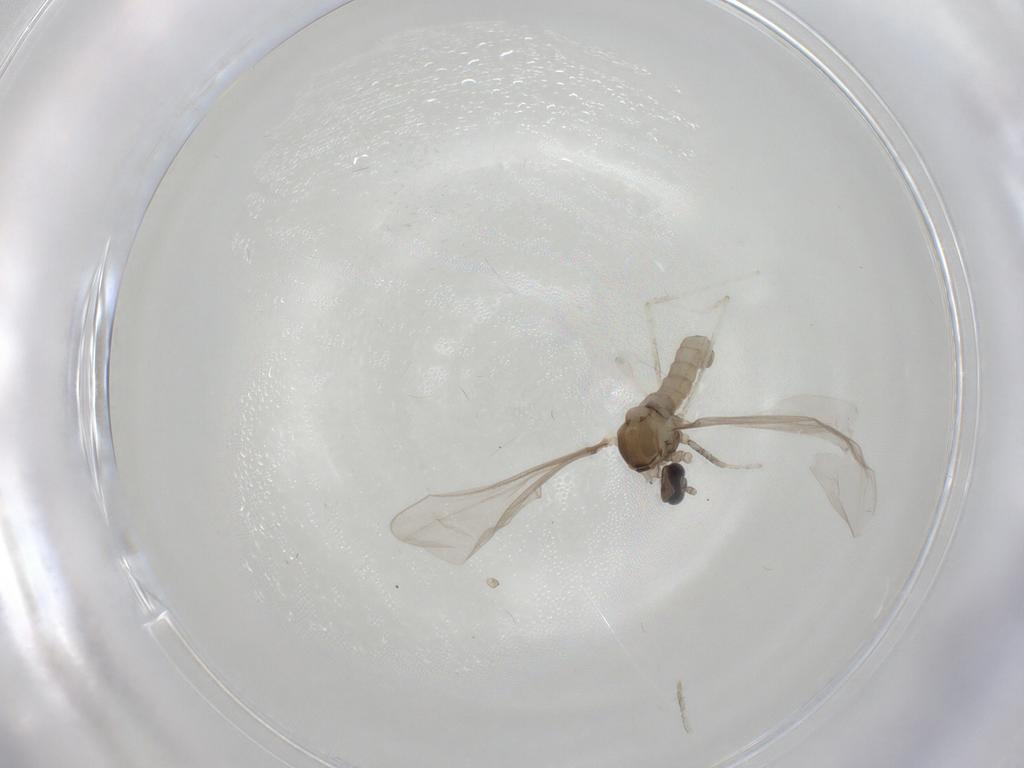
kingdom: Animalia
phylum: Arthropoda
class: Insecta
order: Diptera
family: Cecidomyiidae
